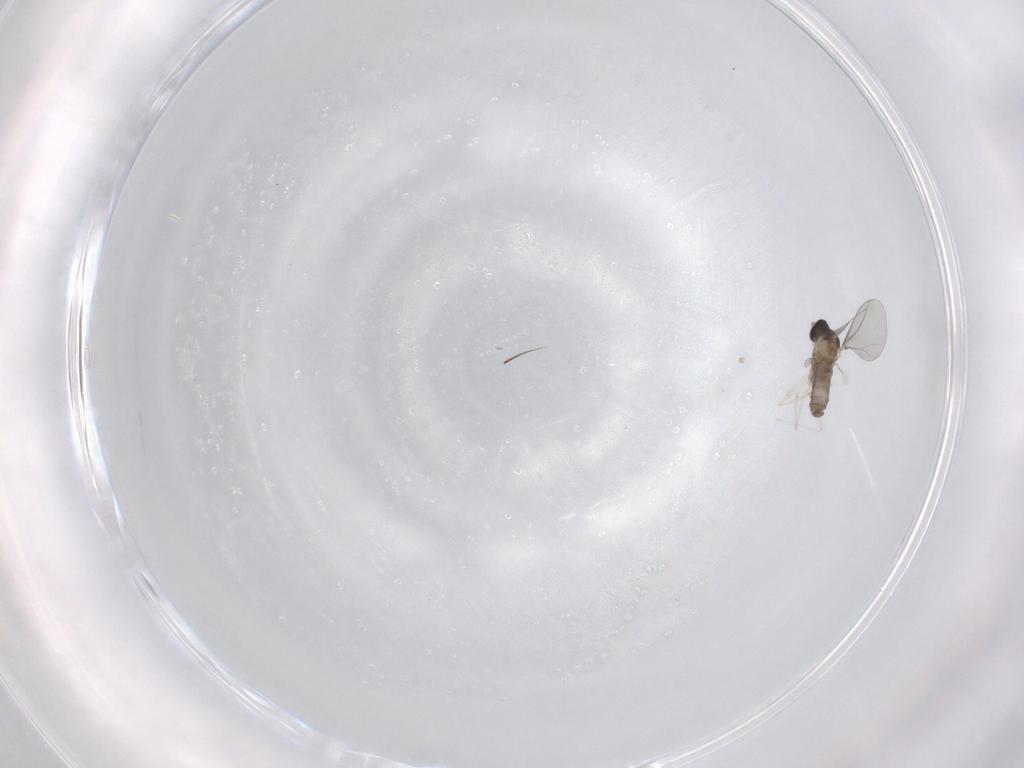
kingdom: Animalia
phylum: Arthropoda
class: Insecta
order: Diptera
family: Cecidomyiidae
